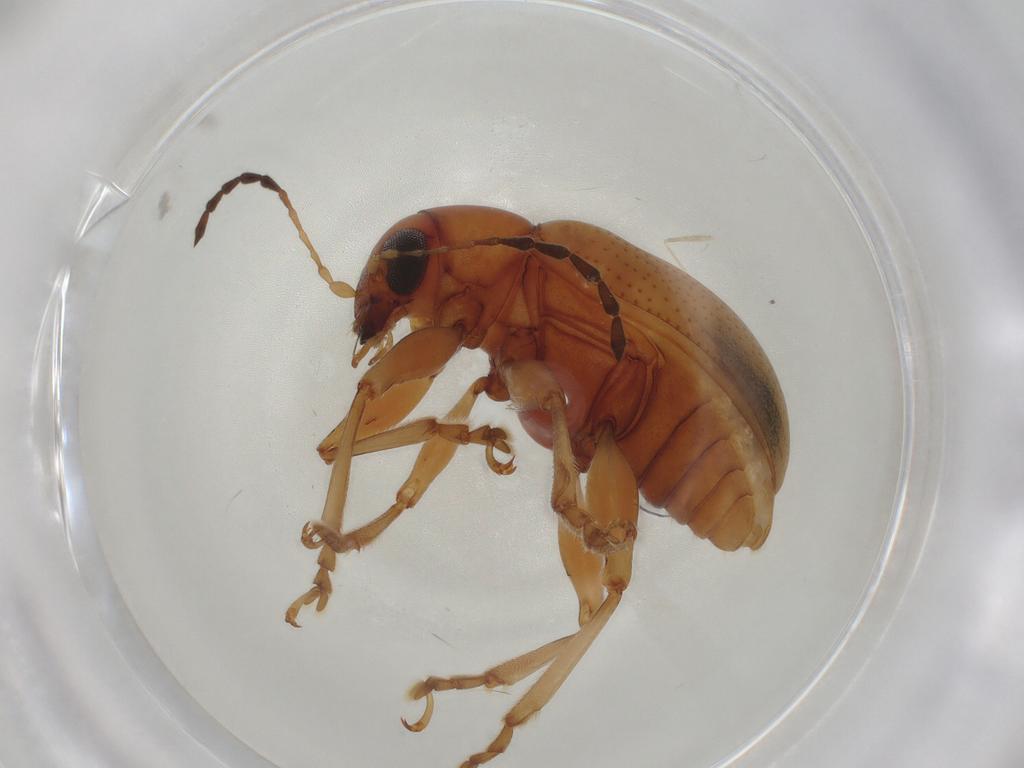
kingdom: Animalia
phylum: Arthropoda
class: Insecta
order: Coleoptera
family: Chrysomelidae
